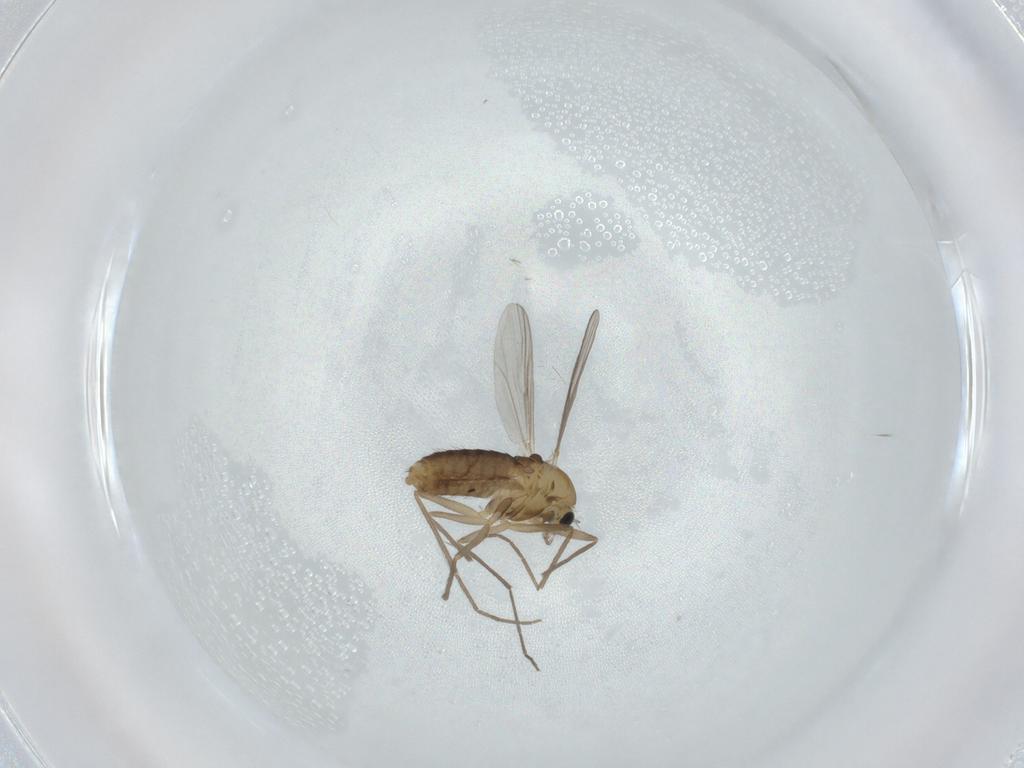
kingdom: Animalia
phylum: Arthropoda
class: Insecta
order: Diptera
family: Chironomidae
